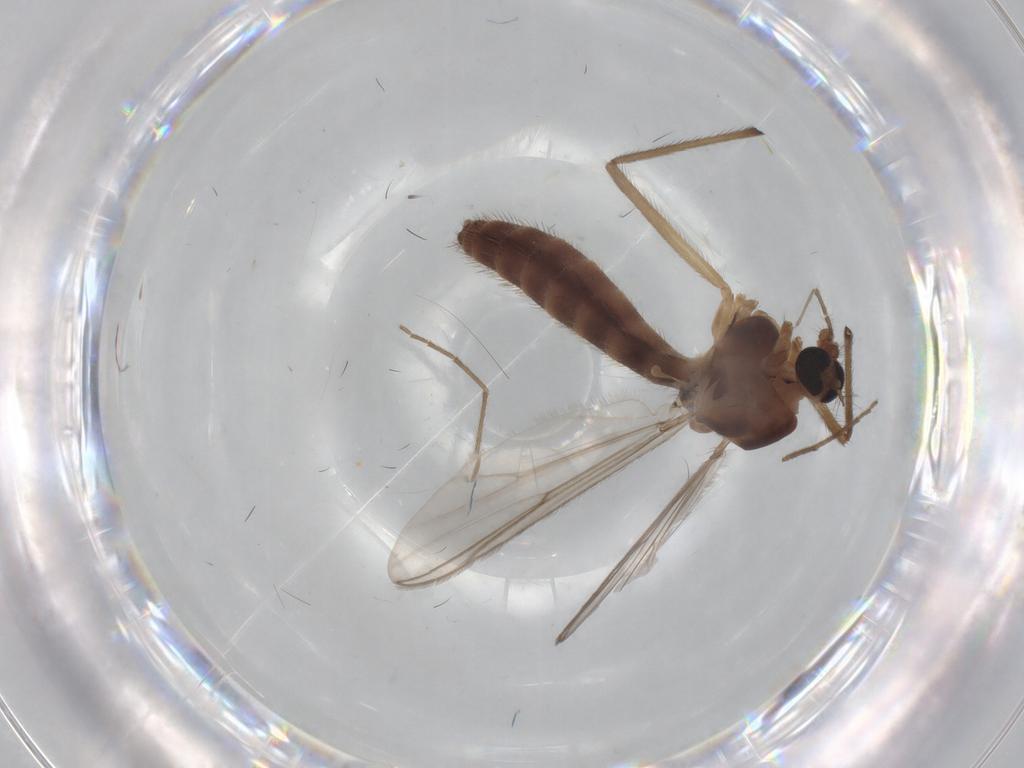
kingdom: Animalia
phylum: Arthropoda
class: Insecta
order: Diptera
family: Chironomidae
